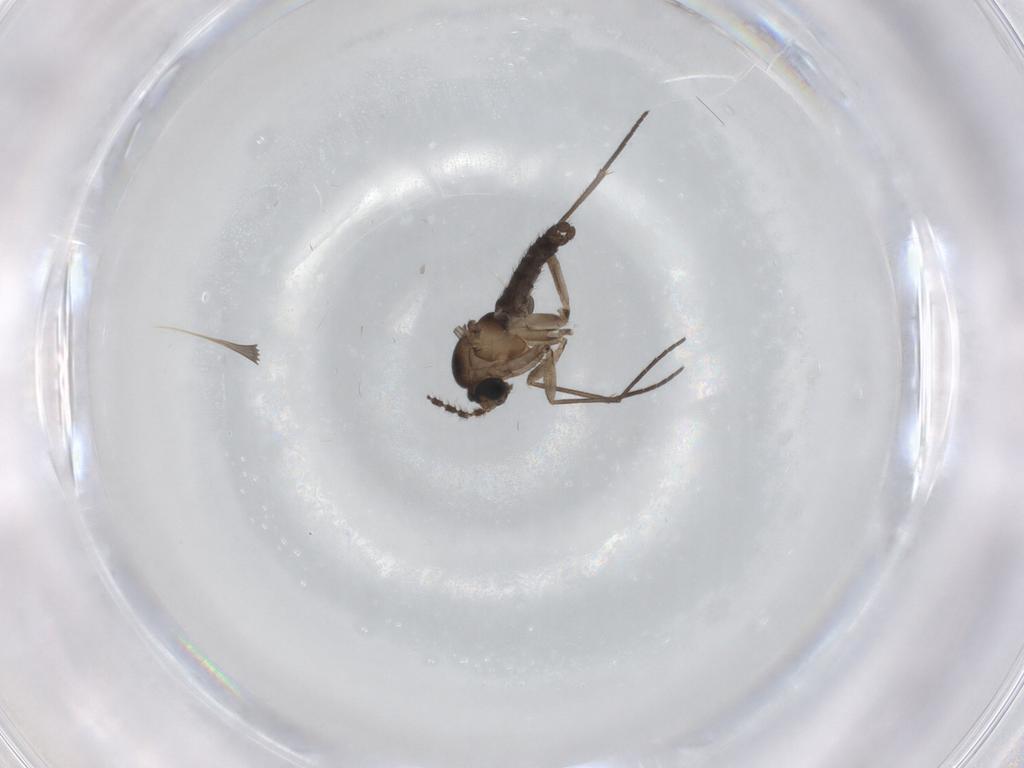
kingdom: Animalia
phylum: Arthropoda
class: Insecta
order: Diptera
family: Sciaridae
